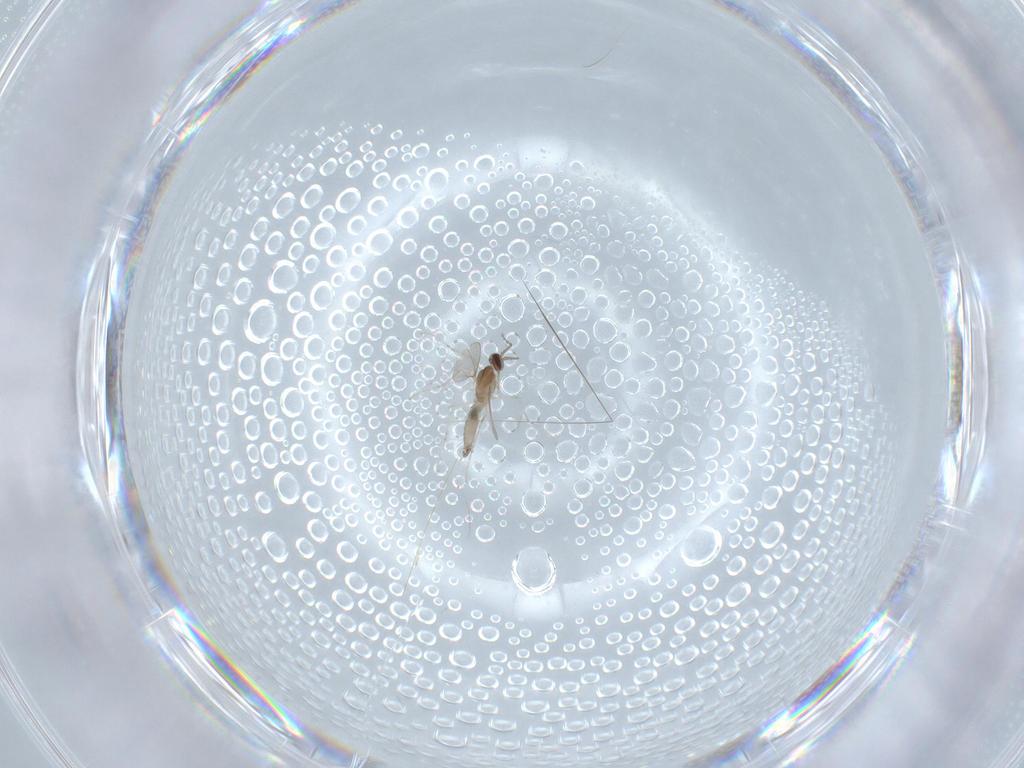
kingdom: Animalia
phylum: Arthropoda
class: Insecta
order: Diptera
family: Cecidomyiidae
